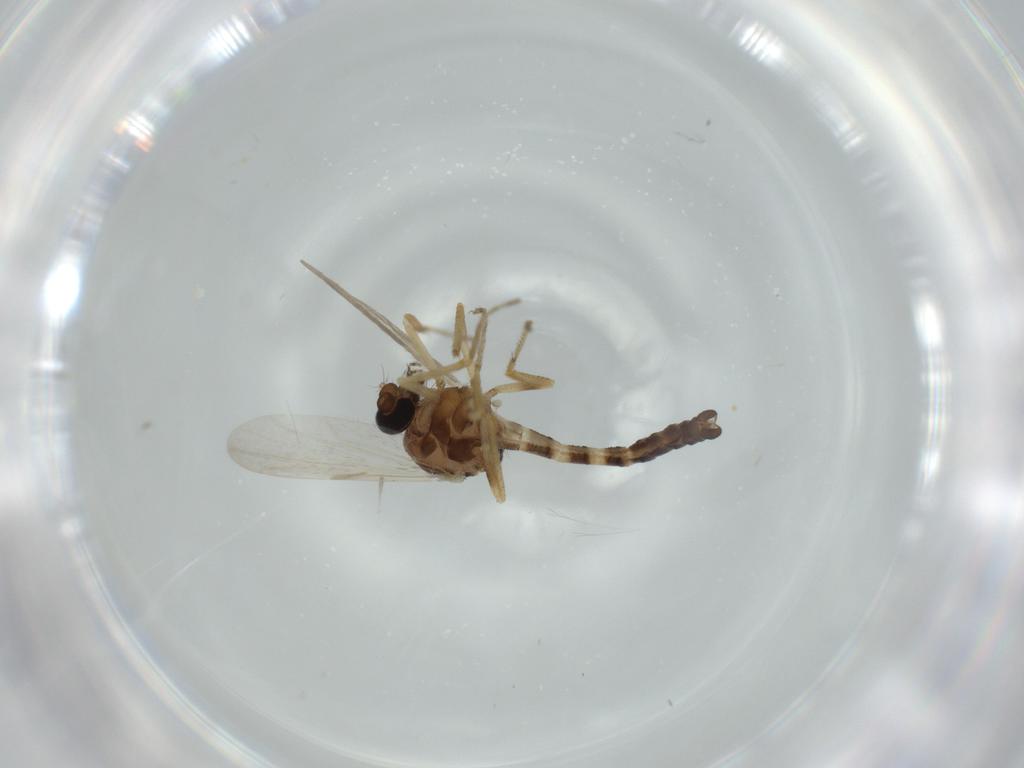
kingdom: Animalia
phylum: Arthropoda
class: Insecta
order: Diptera
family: Ceratopogonidae
